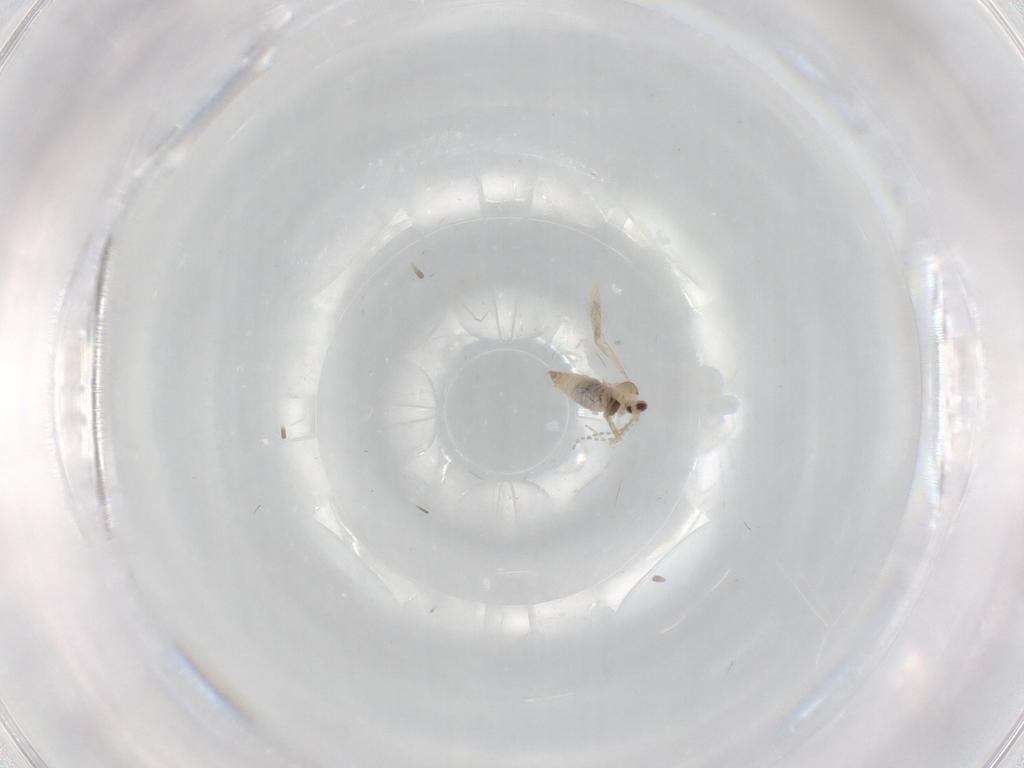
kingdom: Animalia
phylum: Arthropoda
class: Insecta
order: Diptera
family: Cecidomyiidae
